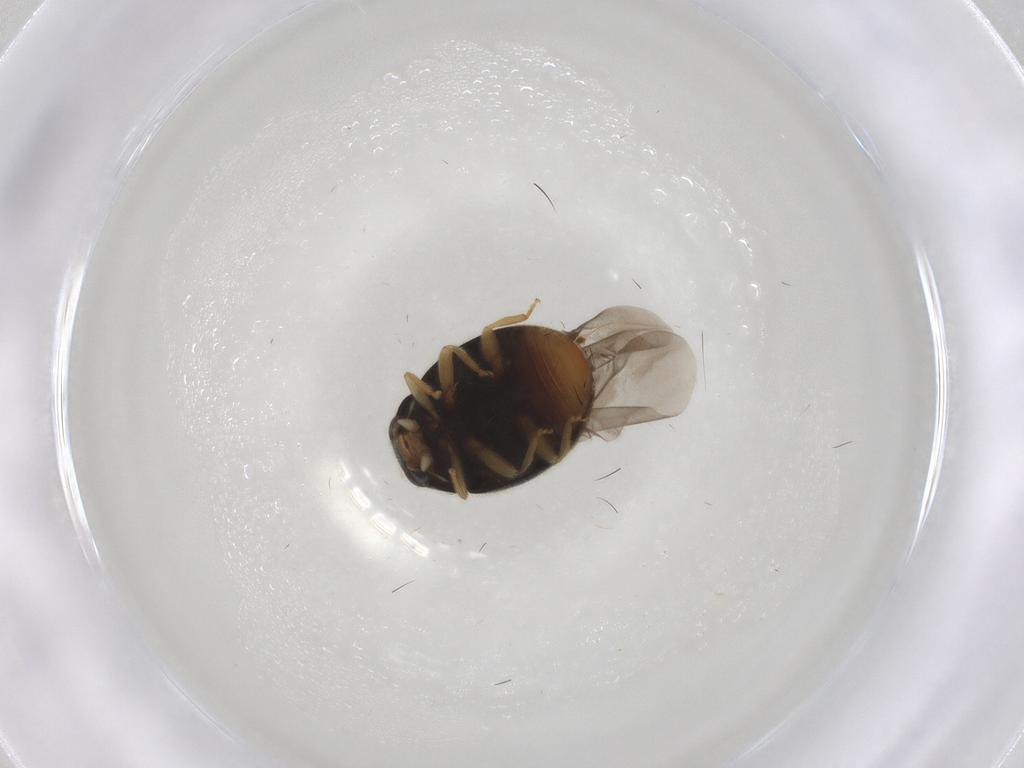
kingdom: Animalia
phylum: Arthropoda
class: Insecta
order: Coleoptera
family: Coccinellidae
